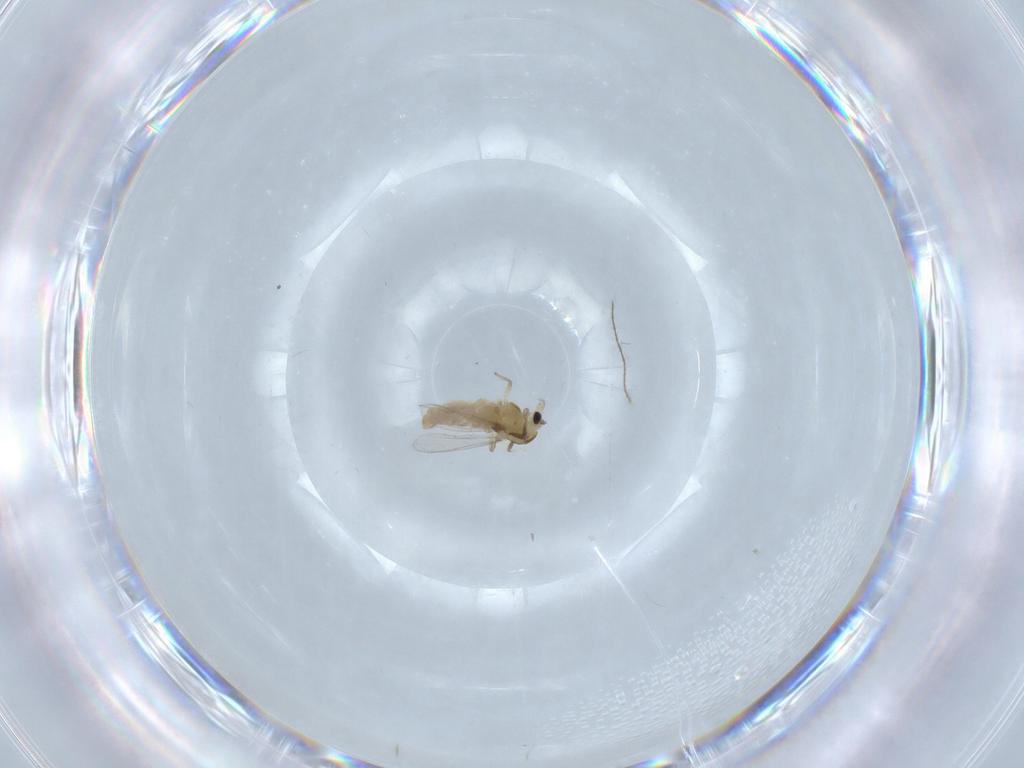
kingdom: Animalia
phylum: Arthropoda
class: Insecta
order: Diptera
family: Chironomidae
